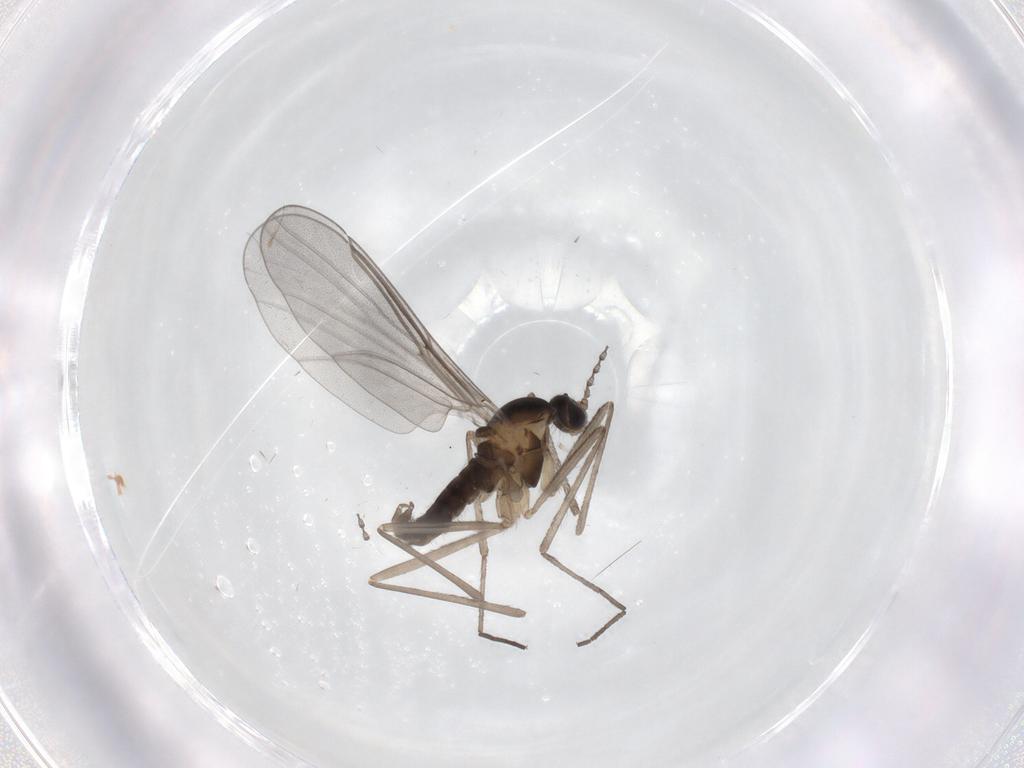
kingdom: Animalia
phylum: Arthropoda
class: Insecta
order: Diptera
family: Cecidomyiidae
